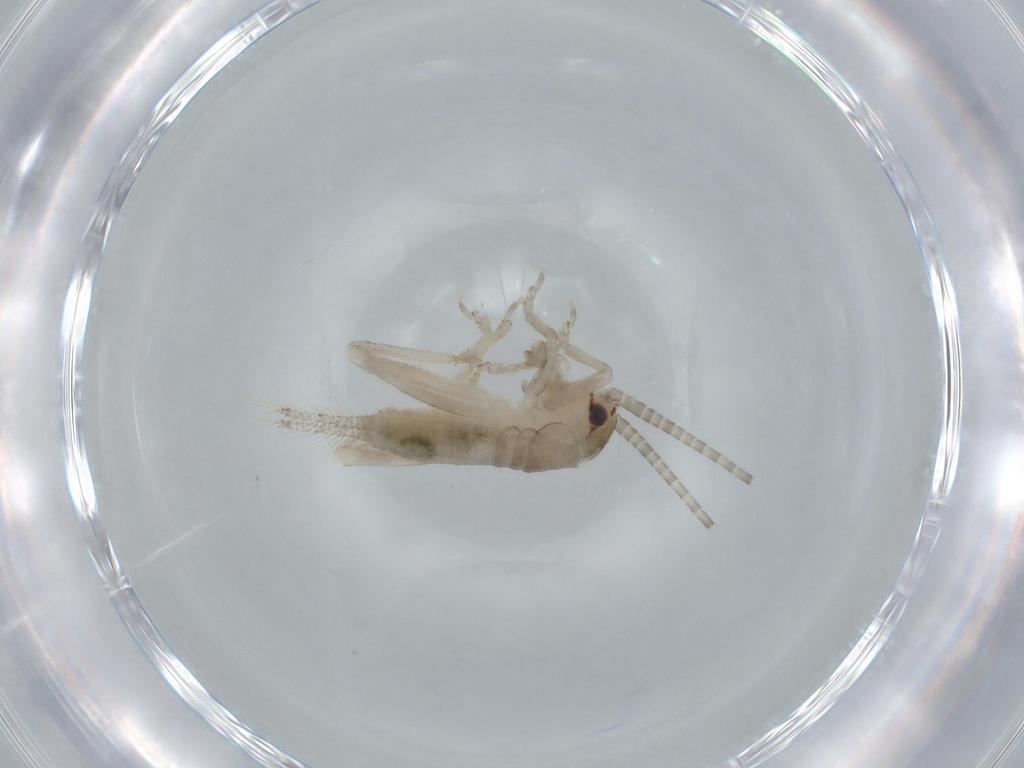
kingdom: Animalia
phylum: Arthropoda
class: Insecta
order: Orthoptera
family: Gryllidae
